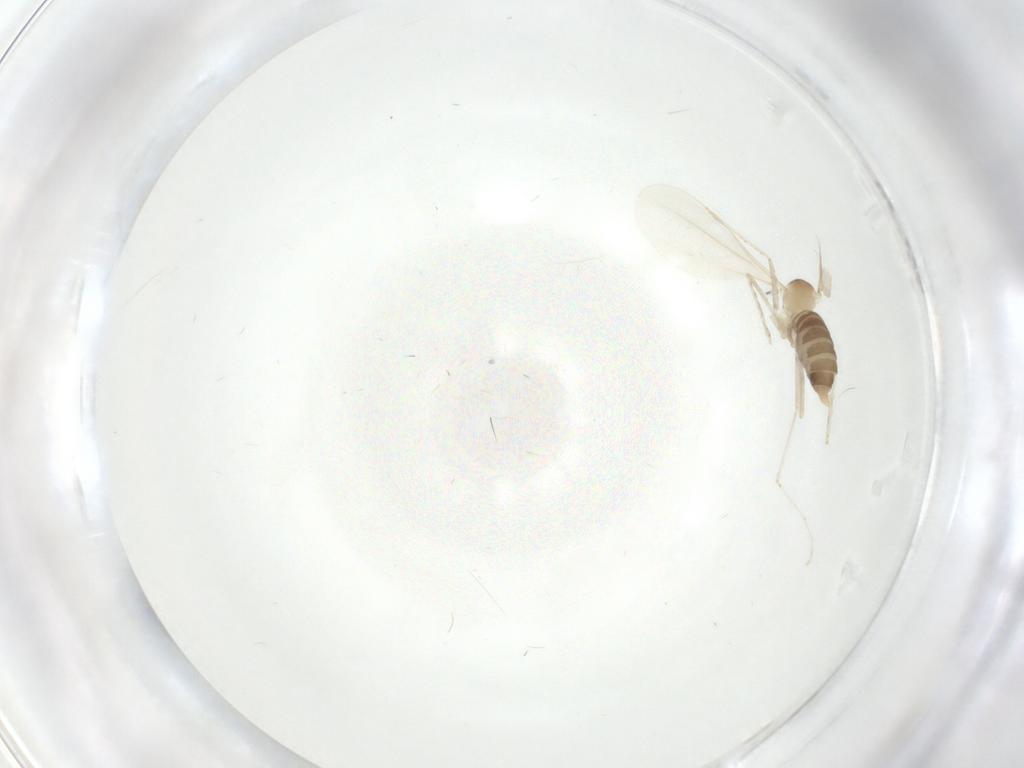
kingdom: Animalia
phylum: Arthropoda
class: Insecta
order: Diptera
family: Cecidomyiidae
